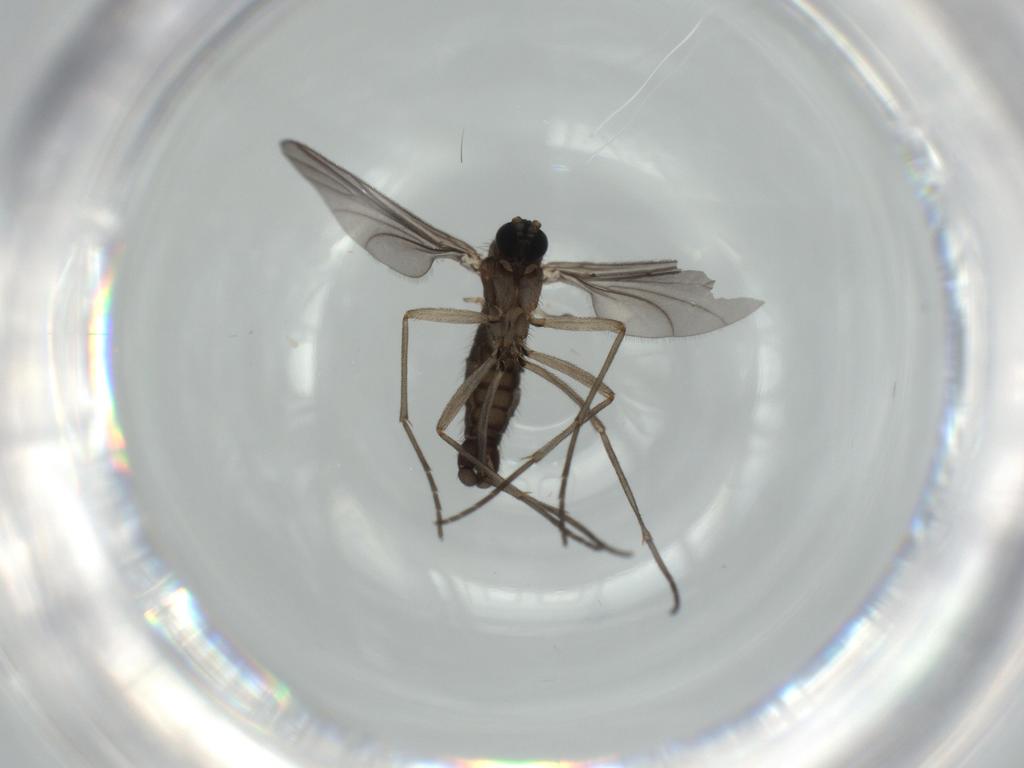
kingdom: Animalia
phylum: Arthropoda
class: Insecta
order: Diptera
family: Sciaridae
